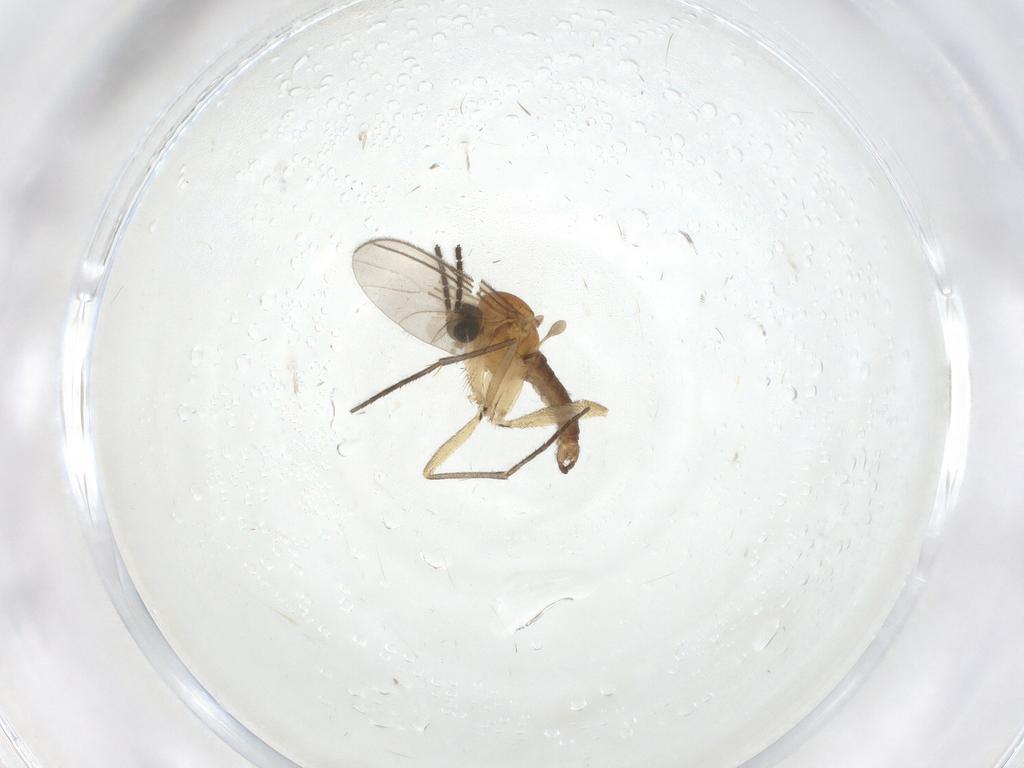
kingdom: Animalia
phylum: Arthropoda
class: Insecta
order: Diptera
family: Sciaridae
